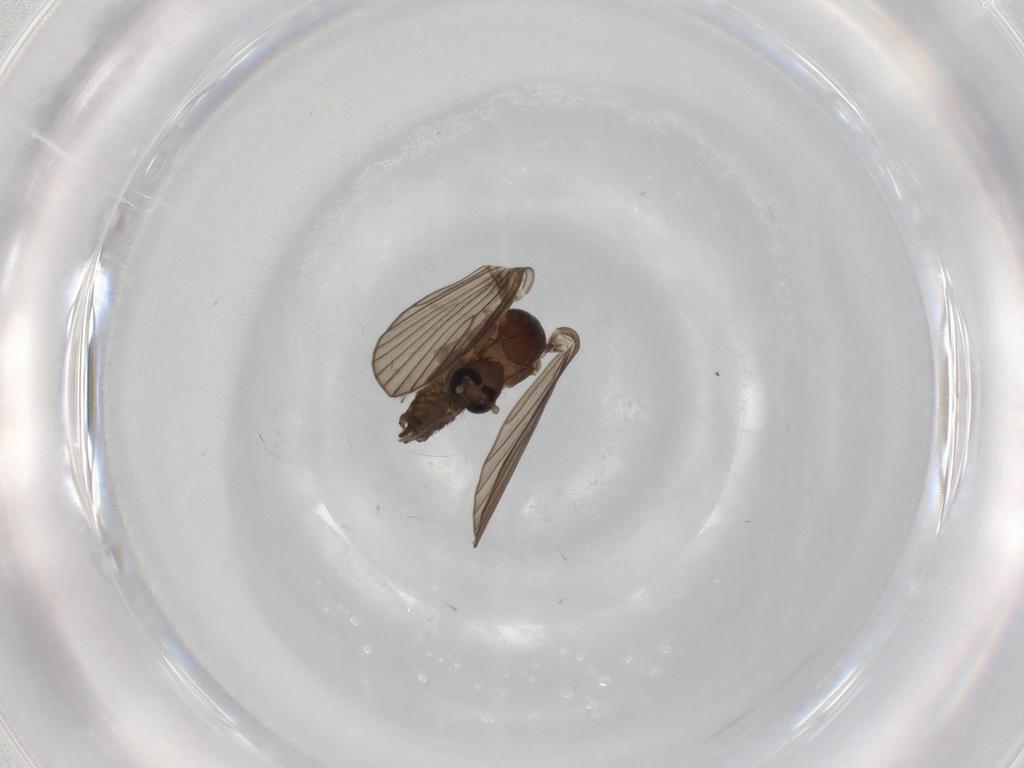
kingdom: Animalia
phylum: Arthropoda
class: Insecta
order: Diptera
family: Psychodidae
